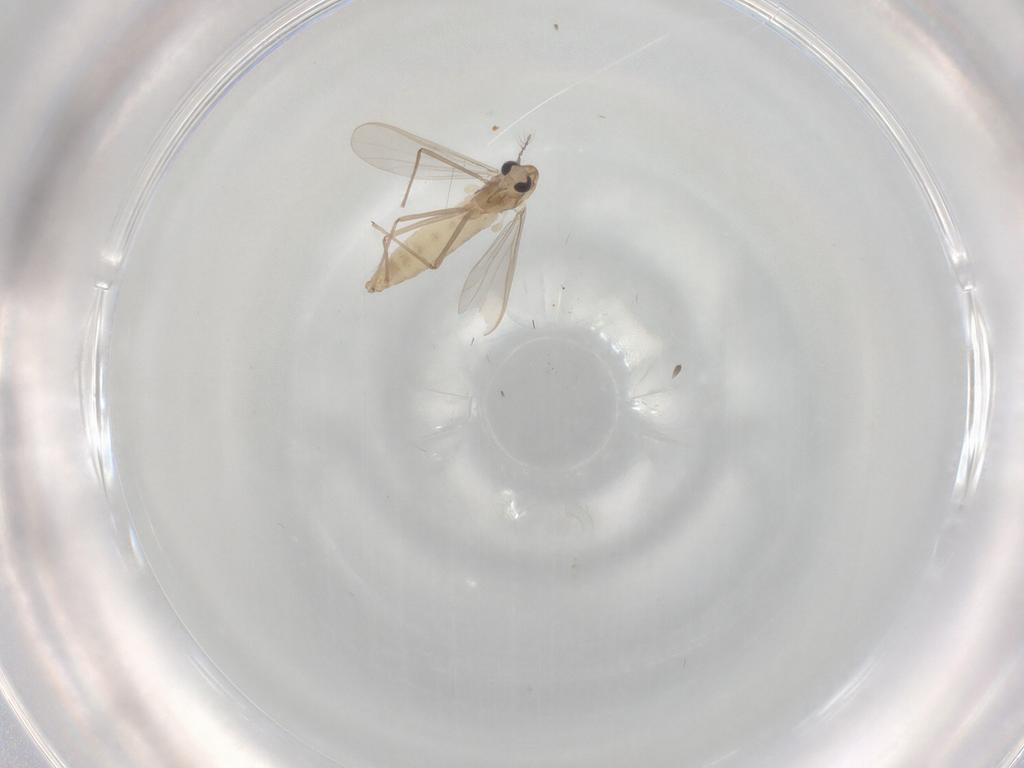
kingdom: Animalia
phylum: Arthropoda
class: Insecta
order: Diptera
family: Chironomidae
